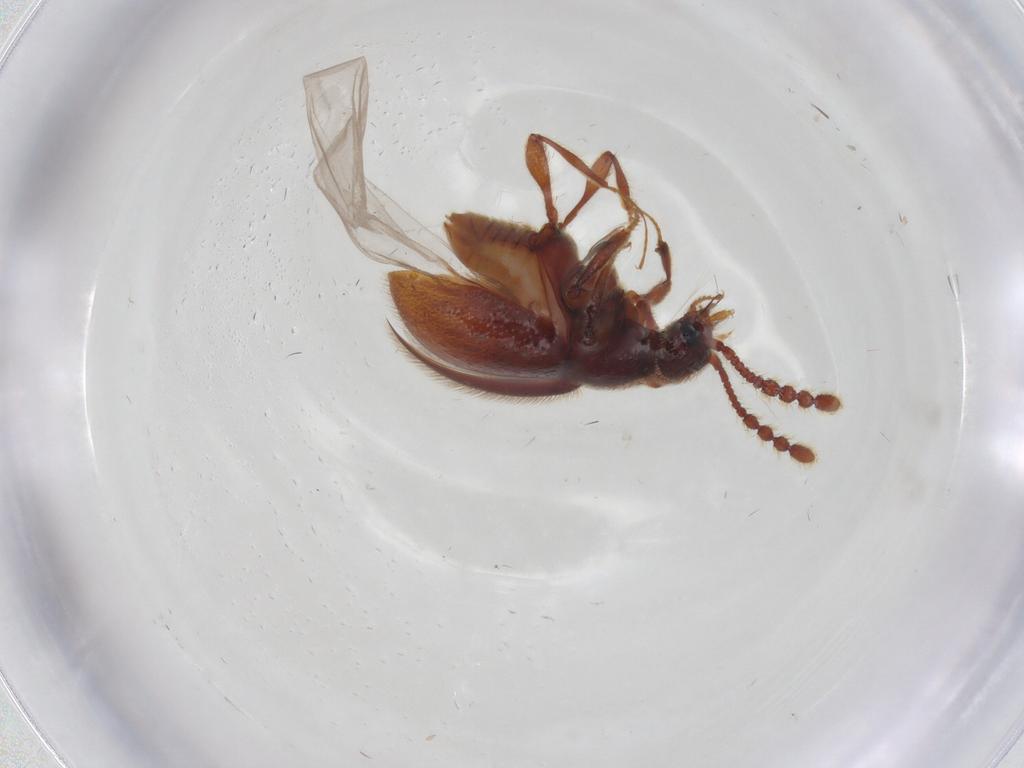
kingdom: Animalia
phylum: Arthropoda
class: Insecta
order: Coleoptera
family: Staphylinidae
